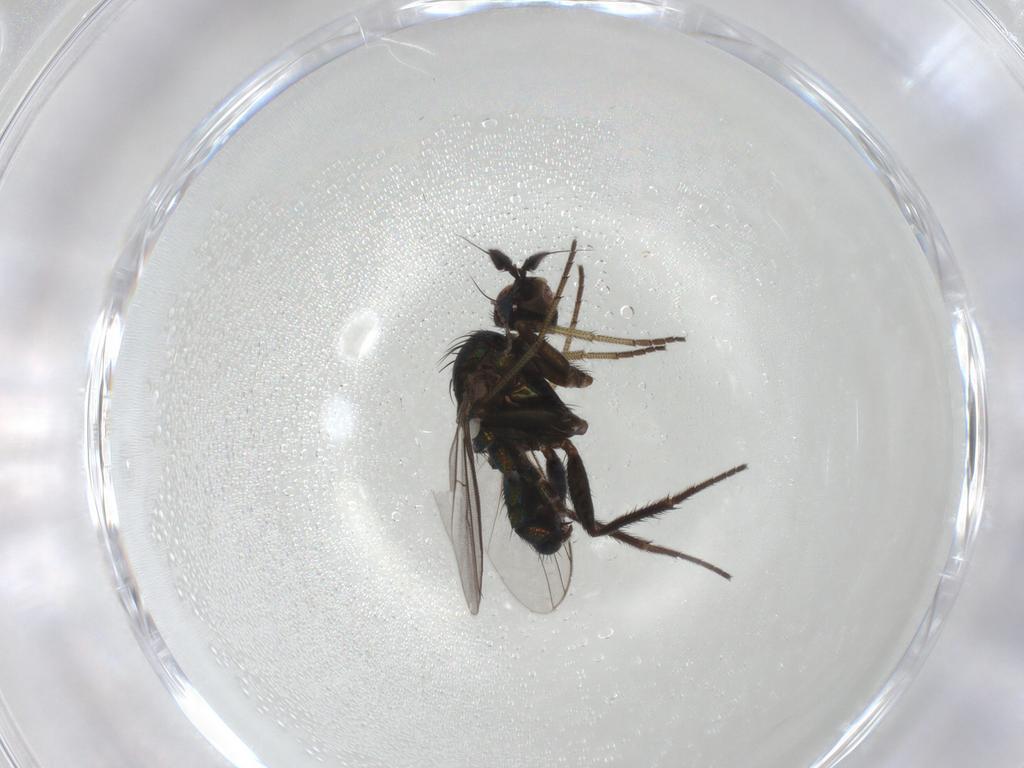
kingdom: Animalia
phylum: Arthropoda
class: Insecta
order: Diptera
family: Cecidomyiidae
